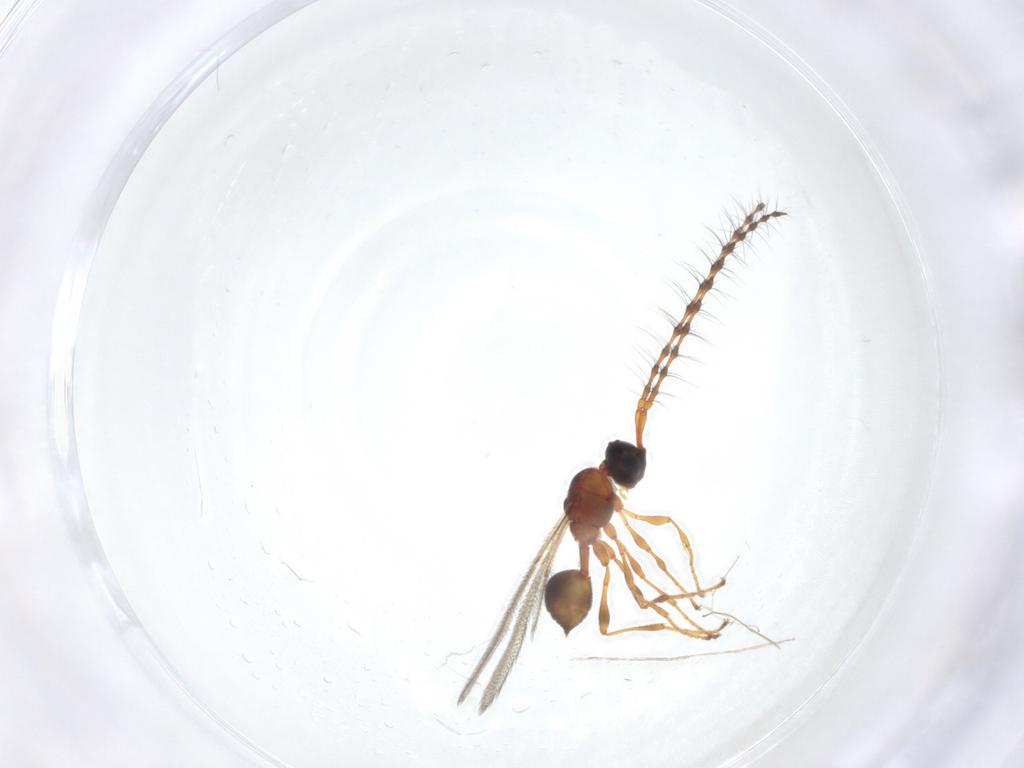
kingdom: Animalia
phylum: Arthropoda
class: Insecta
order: Hymenoptera
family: Diapriidae
